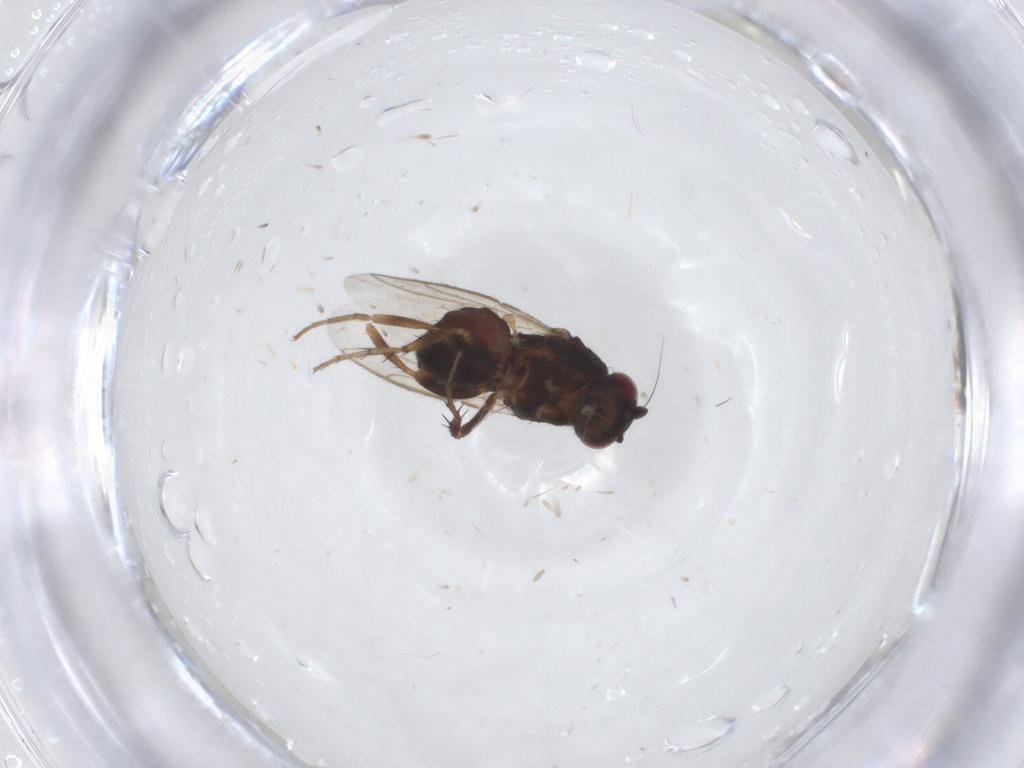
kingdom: Animalia
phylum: Arthropoda
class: Insecta
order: Diptera
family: Sphaeroceridae
